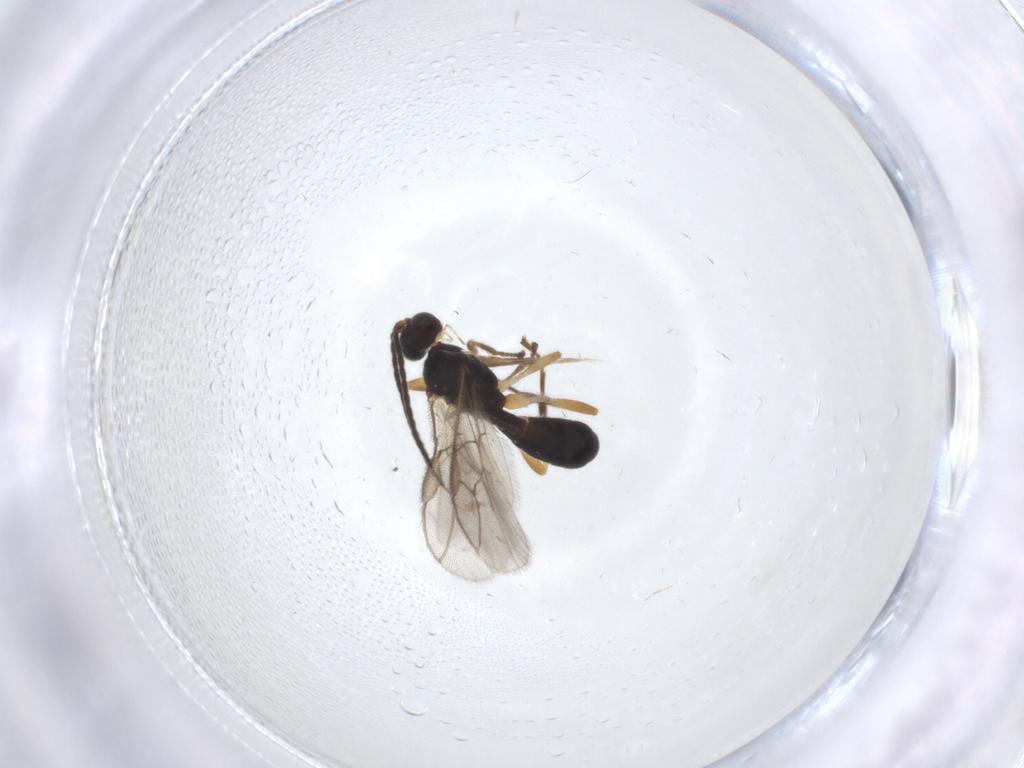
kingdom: Animalia
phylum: Arthropoda
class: Insecta
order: Hymenoptera
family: Braconidae
